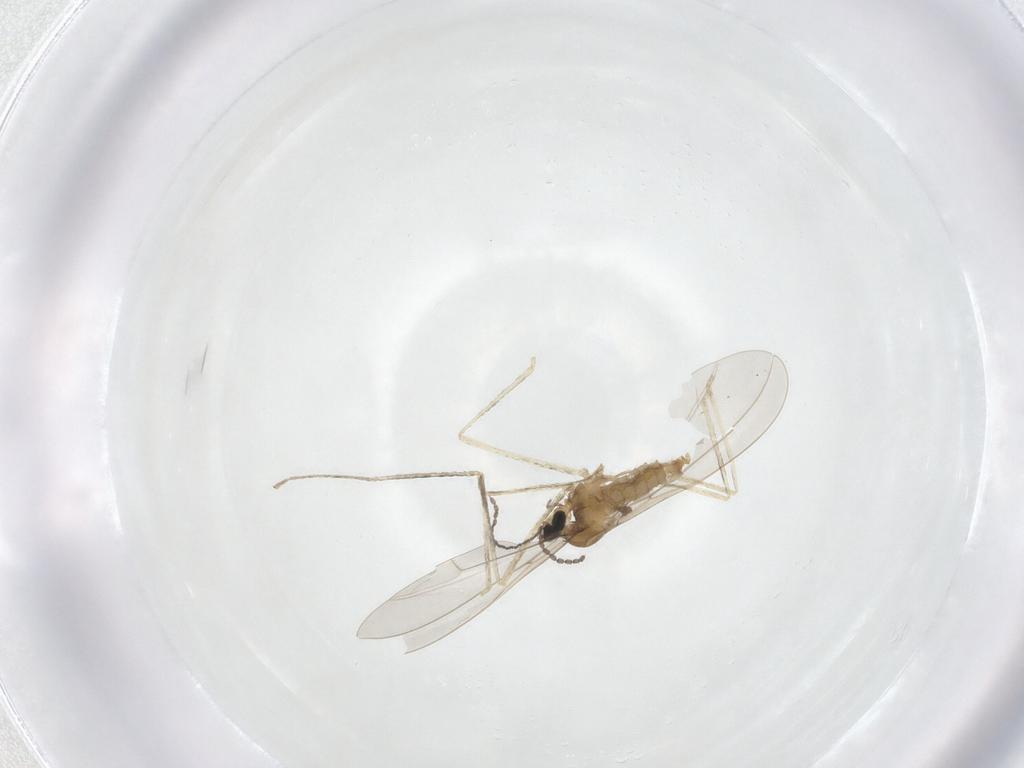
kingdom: Animalia
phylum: Arthropoda
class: Insecta
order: Diptera
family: Cecidomyiidae
